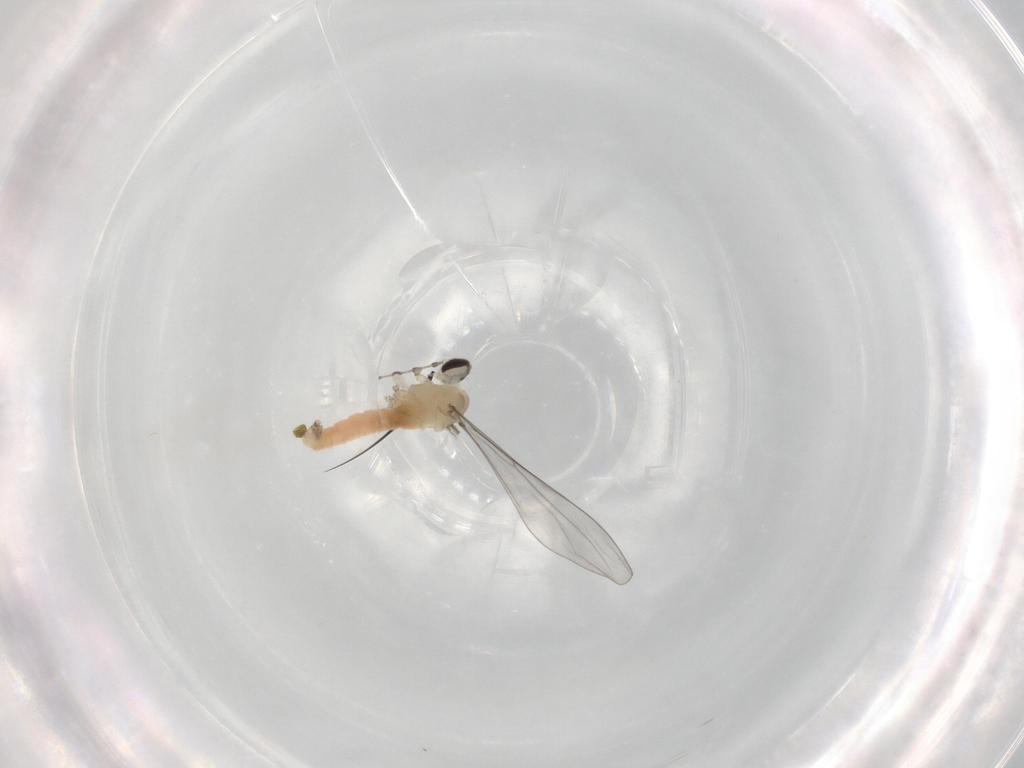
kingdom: Animalia
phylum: Arthropoda
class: Insecta
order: Diptera
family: Cecidomyiidae
